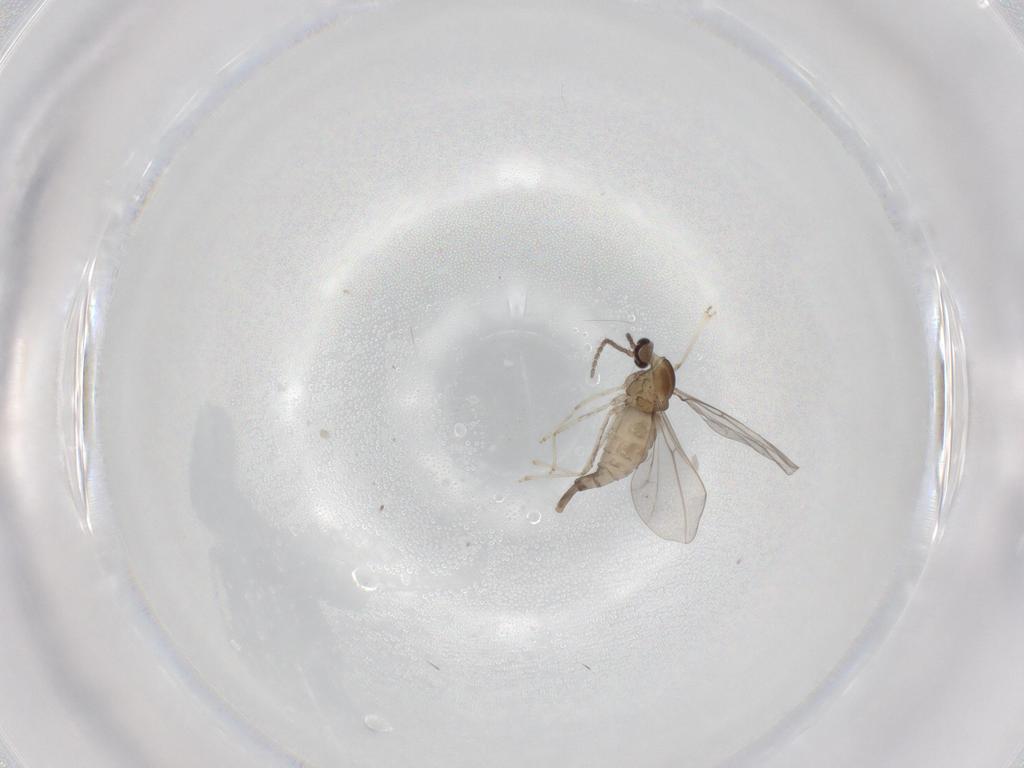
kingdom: Animalia
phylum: Arthropoda
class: Insecta
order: Diptera
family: Cecidomyiidae
